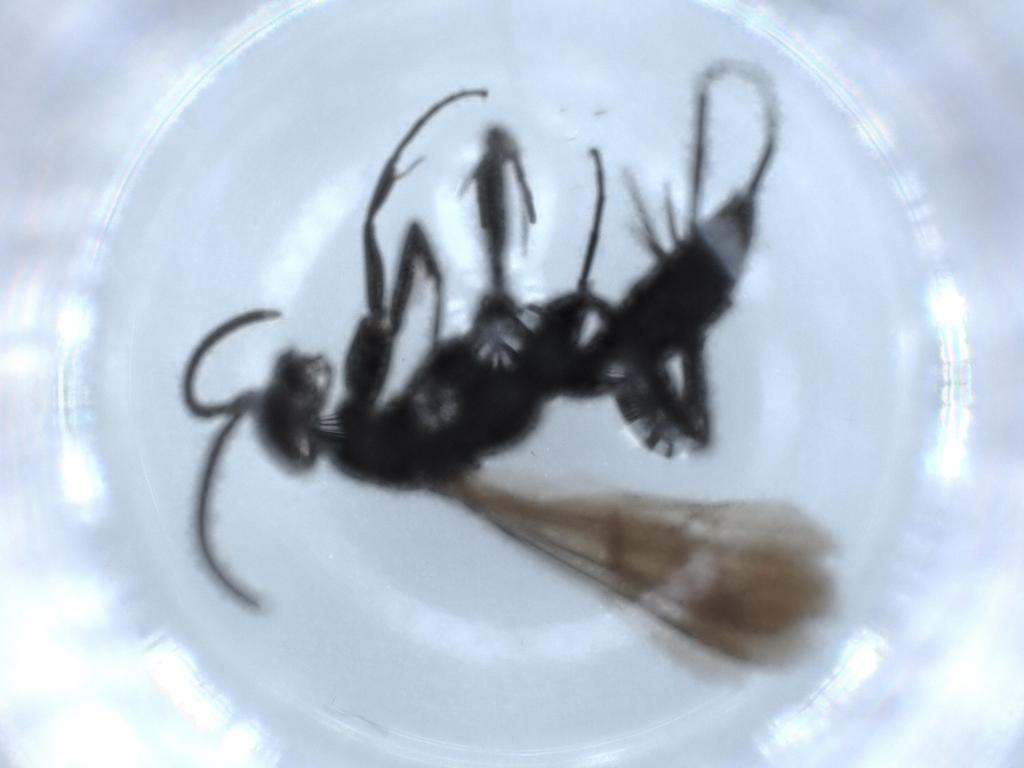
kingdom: Animalia
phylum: Arthropoda
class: Insecta
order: Hymenoptera
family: Pompilidae
